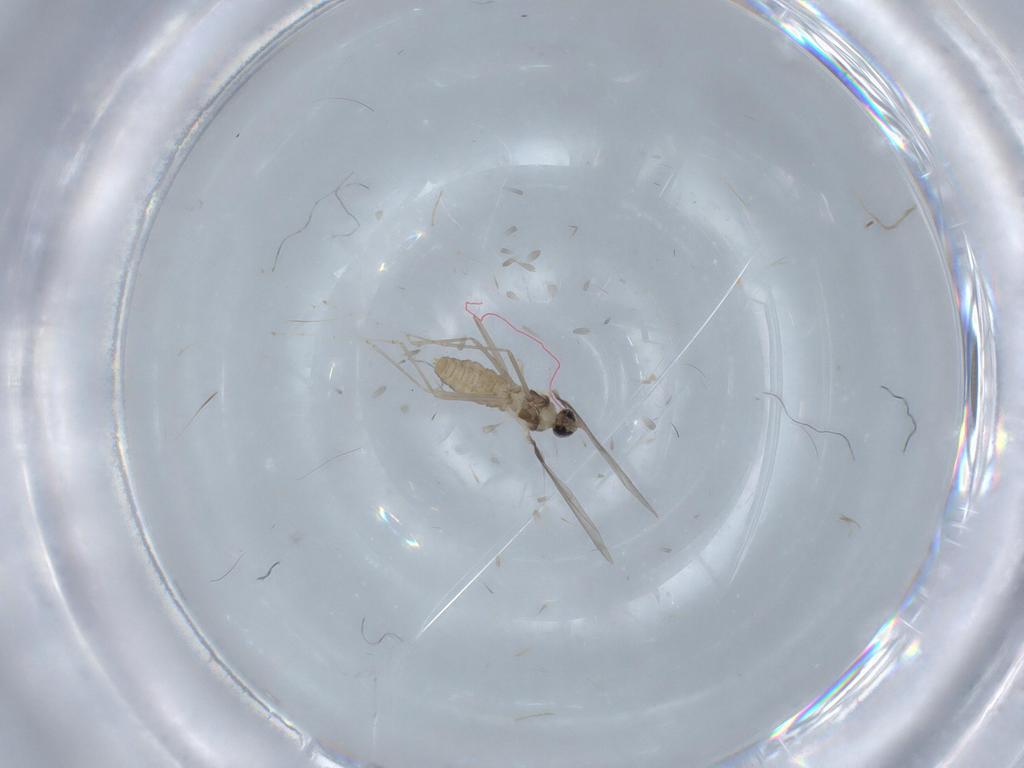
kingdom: Animalia
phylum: Arthropoda
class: Insecta
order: Diptera
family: Cecidomyiidae
